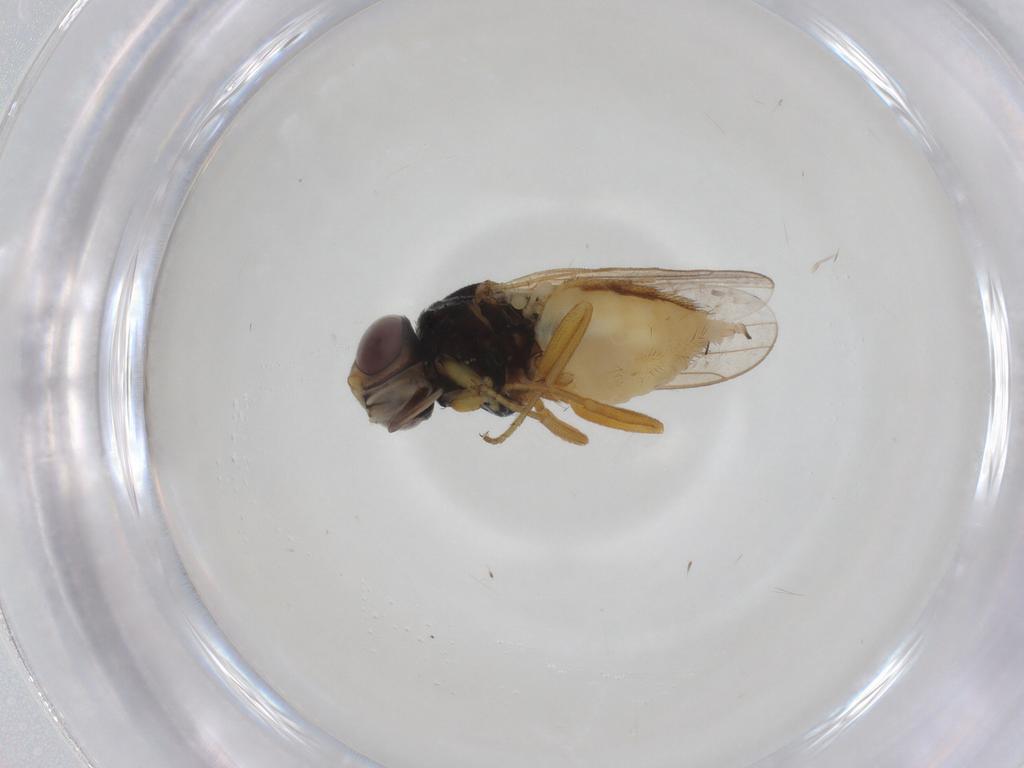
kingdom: Animalia
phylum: Arthropoda
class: Insecta
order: Diptera
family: Chloropidae
